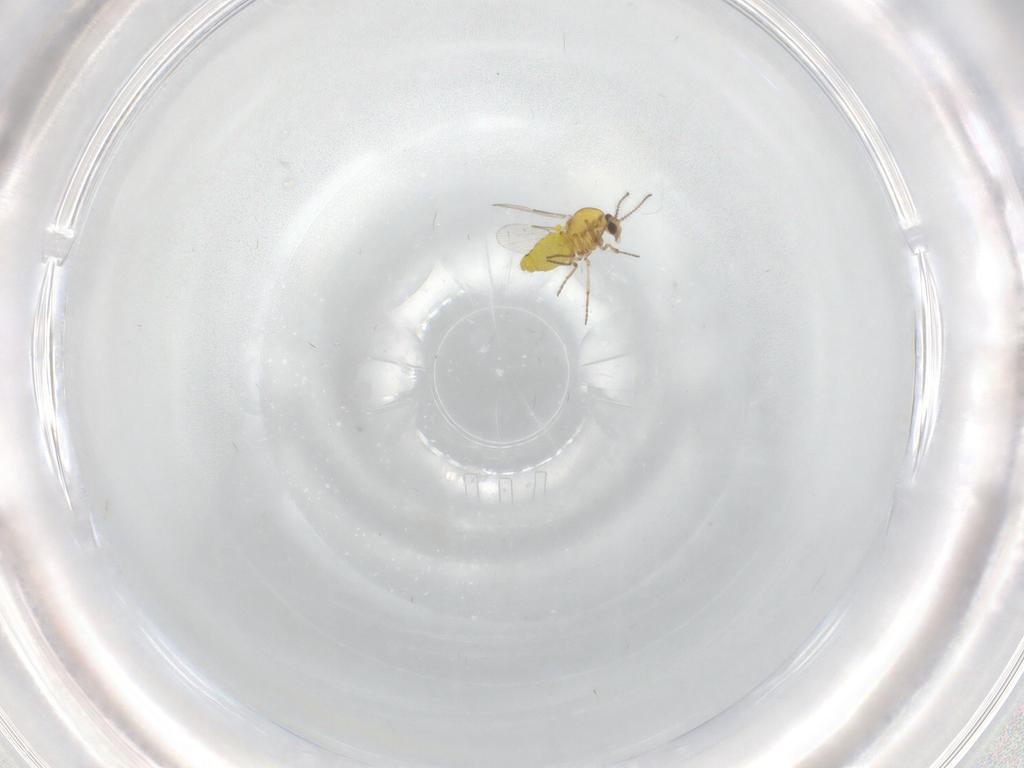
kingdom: Animalia
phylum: Arthropoda
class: Insecta
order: Diptera
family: Ceratopogonidae
